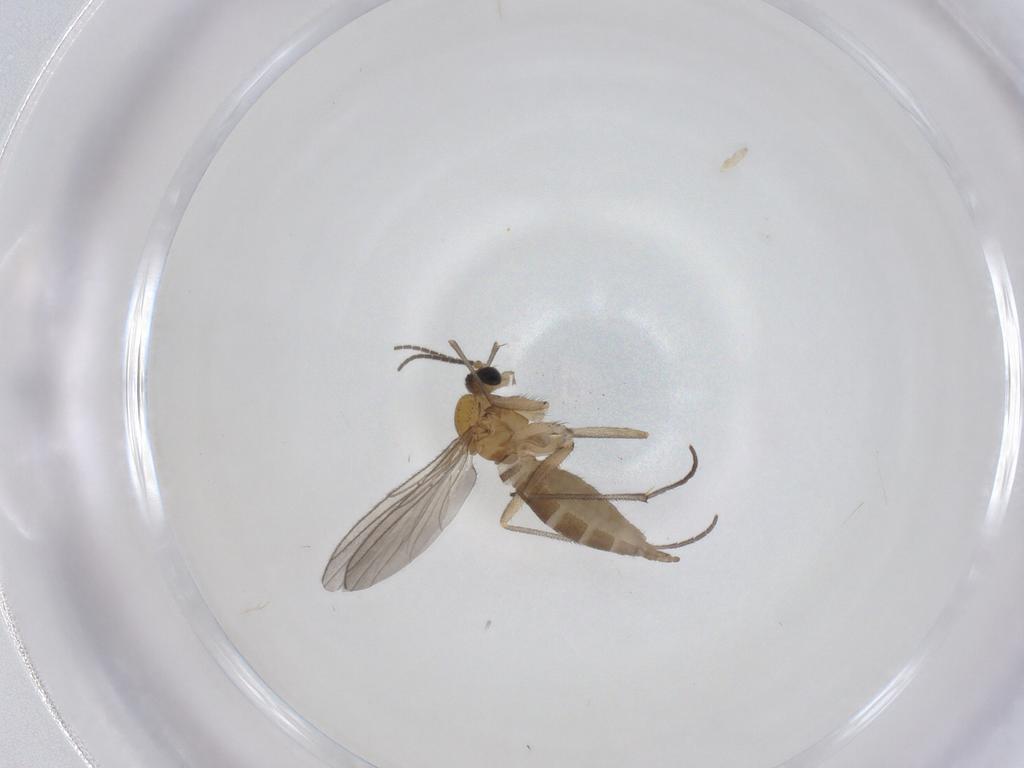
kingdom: Animalia
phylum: Arthropoda
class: Insecta
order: Diptera
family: Sciaridae
